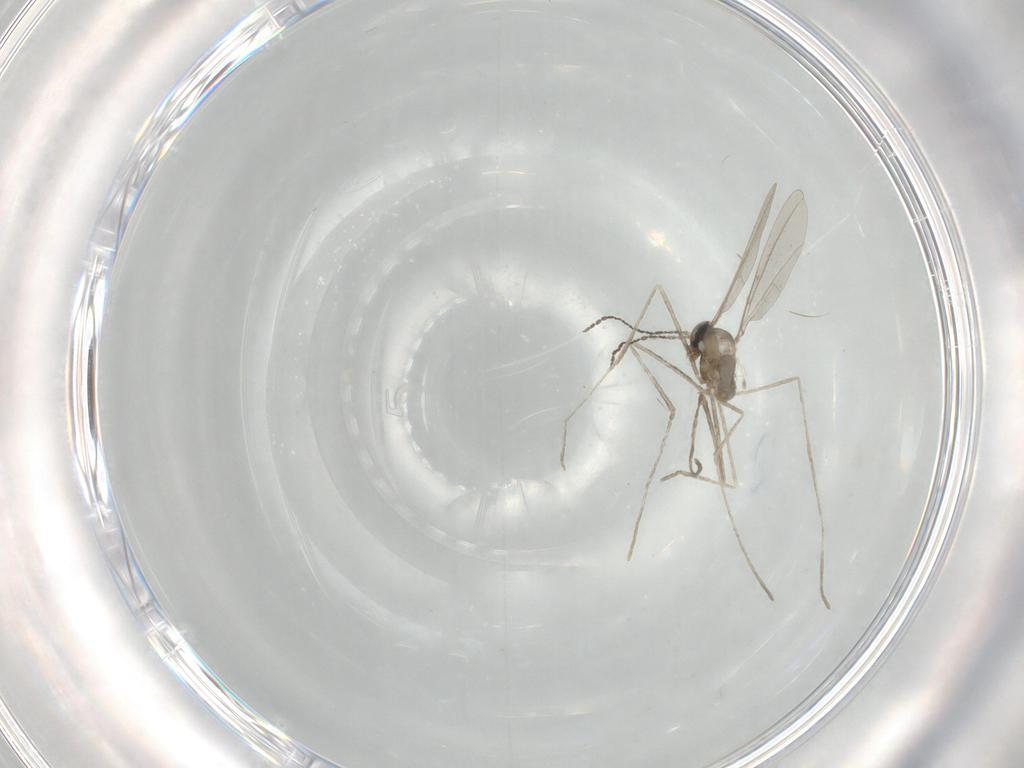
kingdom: Animalia
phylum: Arthropoda
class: Insecta
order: Diptera
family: Cecidomyiidae
